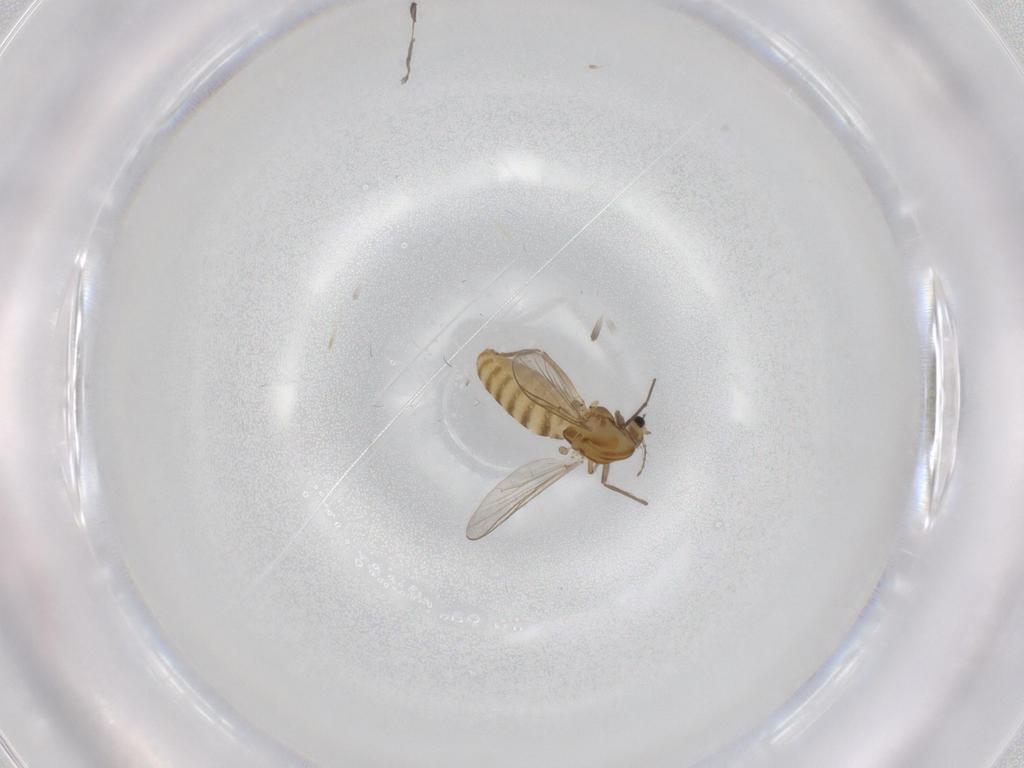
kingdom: Animalia
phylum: Arthropoda
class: Insecta
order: Diptera
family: Chironomidae
